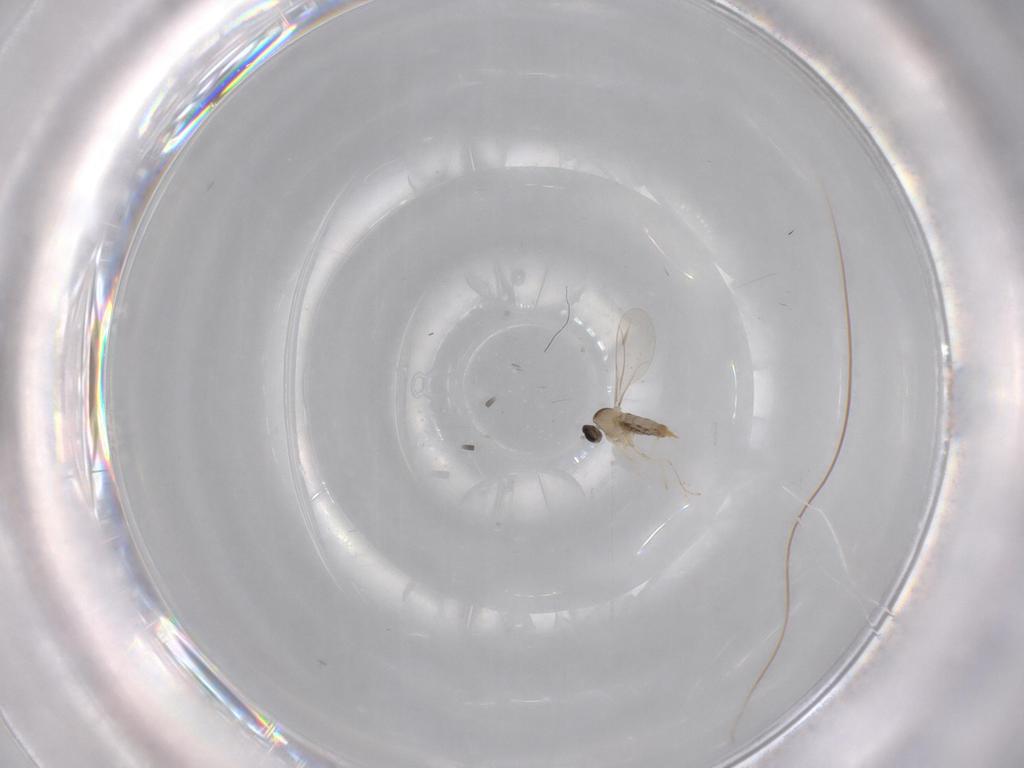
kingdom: Animalia
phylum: Arthropoda
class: Insecta
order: Diptera
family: Cecidomyiidae
